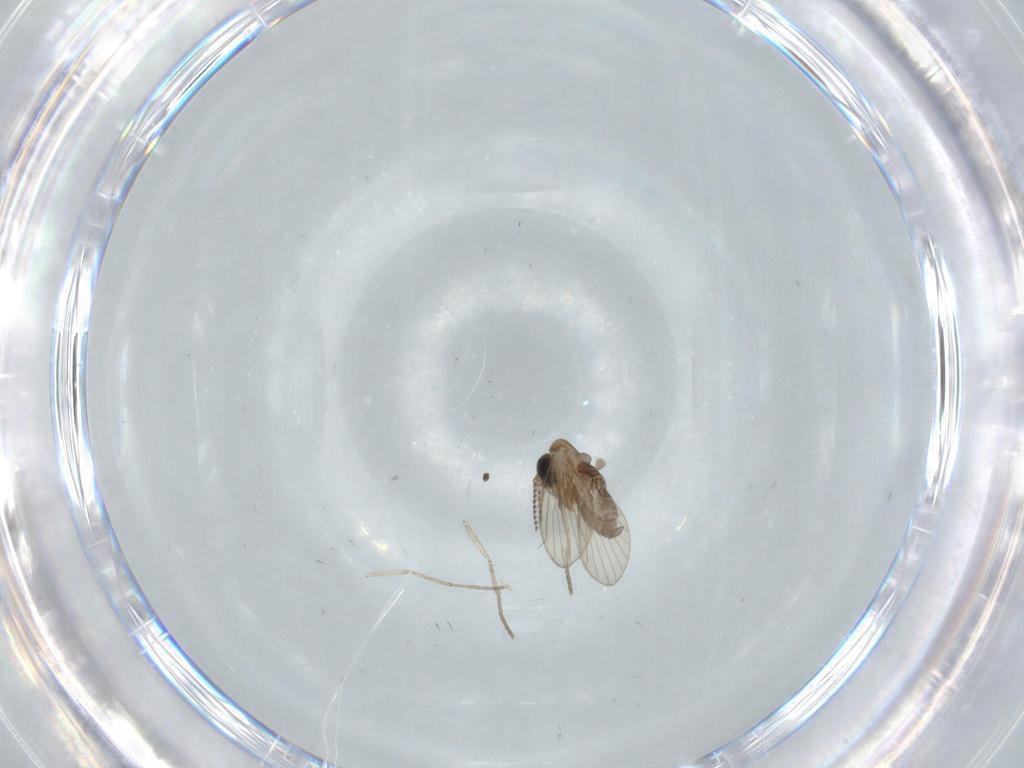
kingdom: Animalia
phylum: Arthropoda
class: Insecta
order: Diptera
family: Psychodidae
